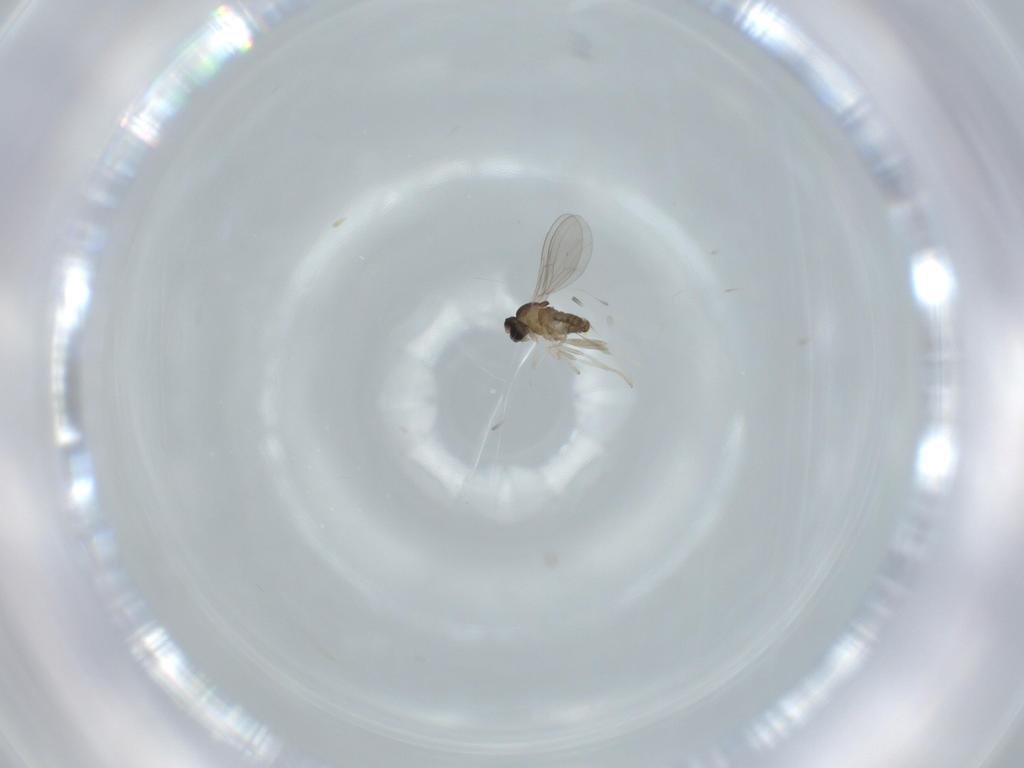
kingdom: Animalia
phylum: Arthropoda
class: Insecta
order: Diptera
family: Cecidomyiidae
